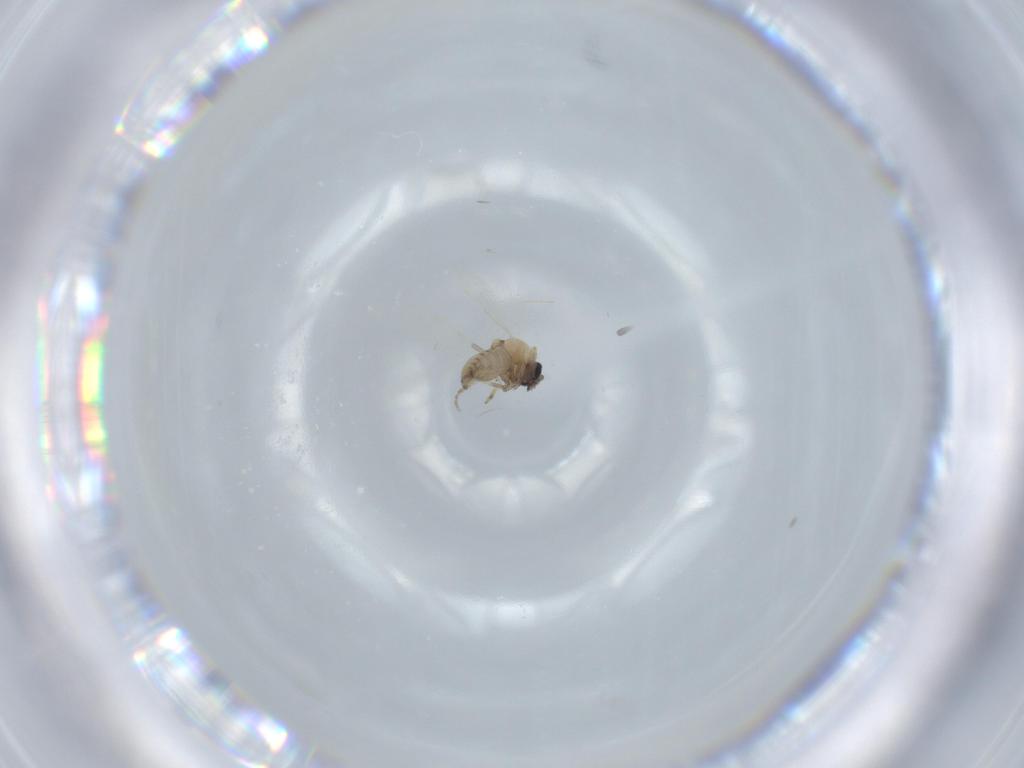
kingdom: Animalia
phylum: Arthropoda
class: Insecta
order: Diptera
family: Ceratopogonidae
